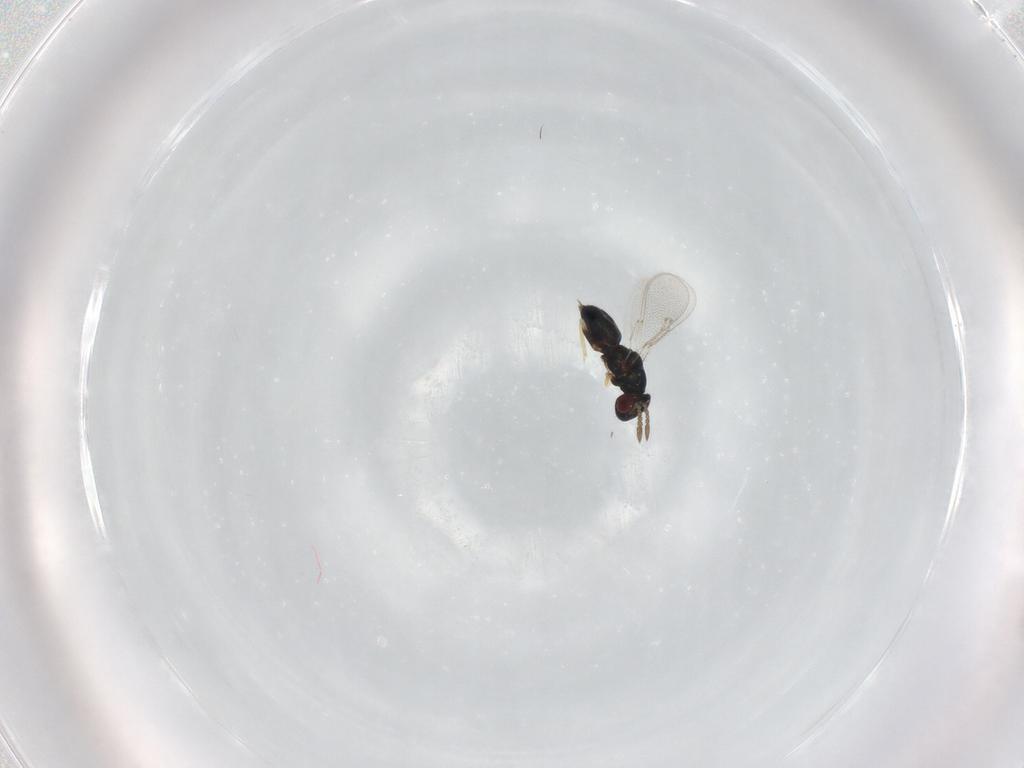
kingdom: Animalia
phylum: Arthropoda
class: Insecta
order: Hymenoptera
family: Eulophidae
